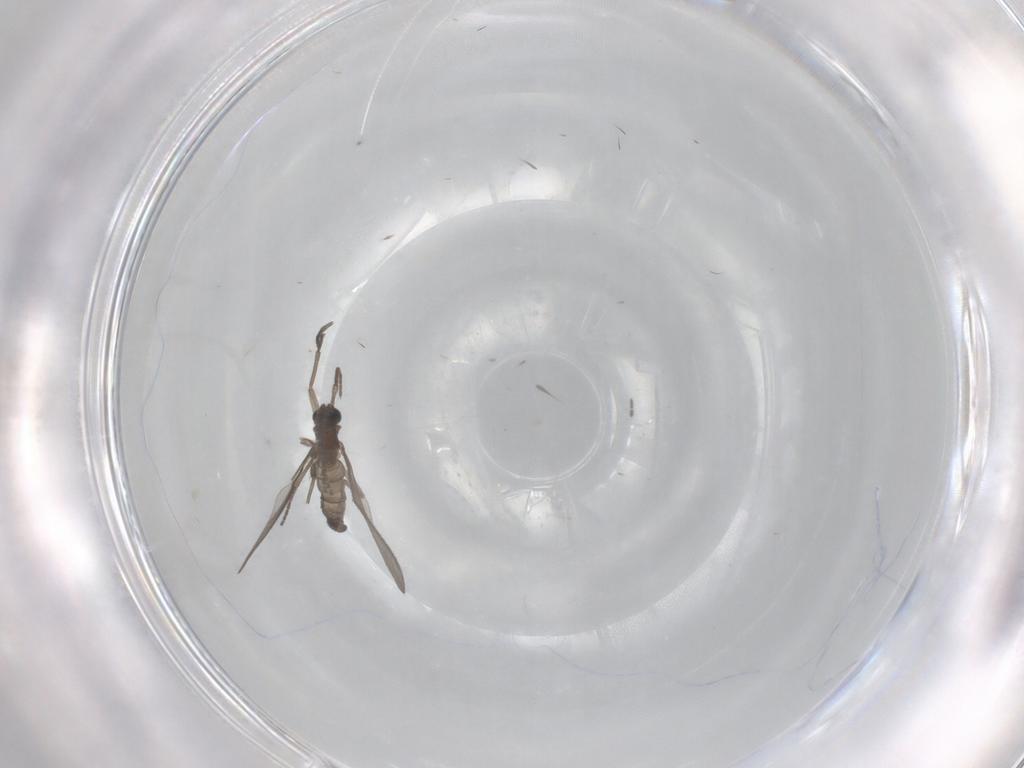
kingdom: Animalia
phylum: Arthropoda
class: Insecta
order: Diptera
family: Sciaridae
